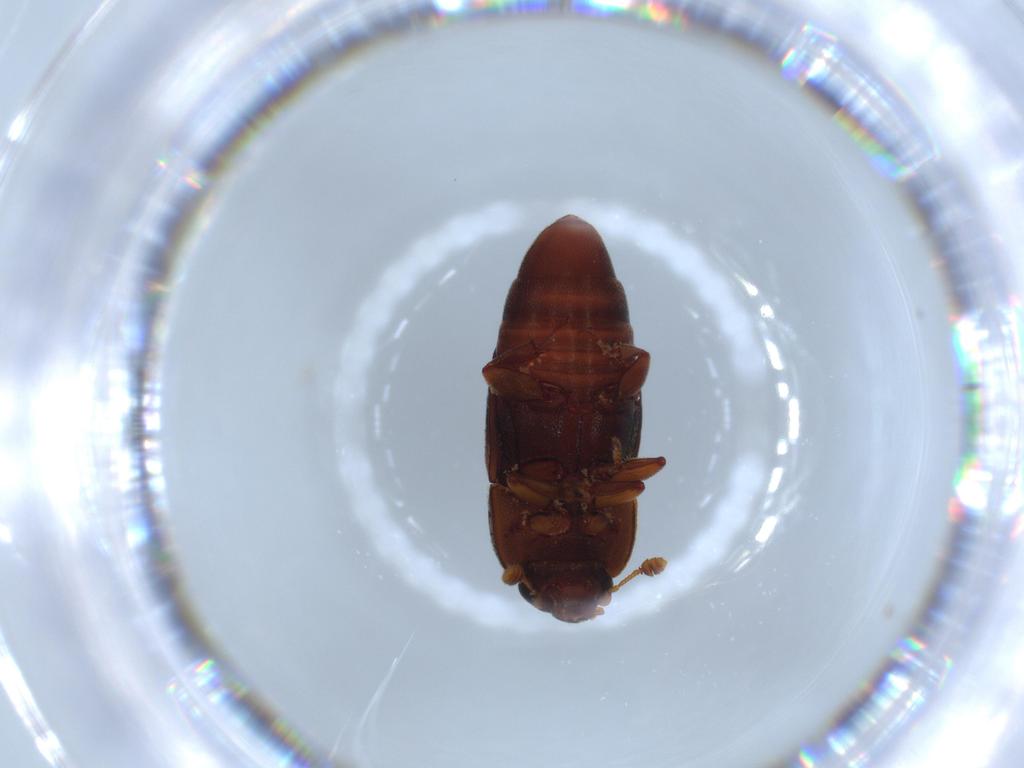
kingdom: Animalia
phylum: Arthropoda
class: Insecta
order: Coleoptera
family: Nitidulidae
